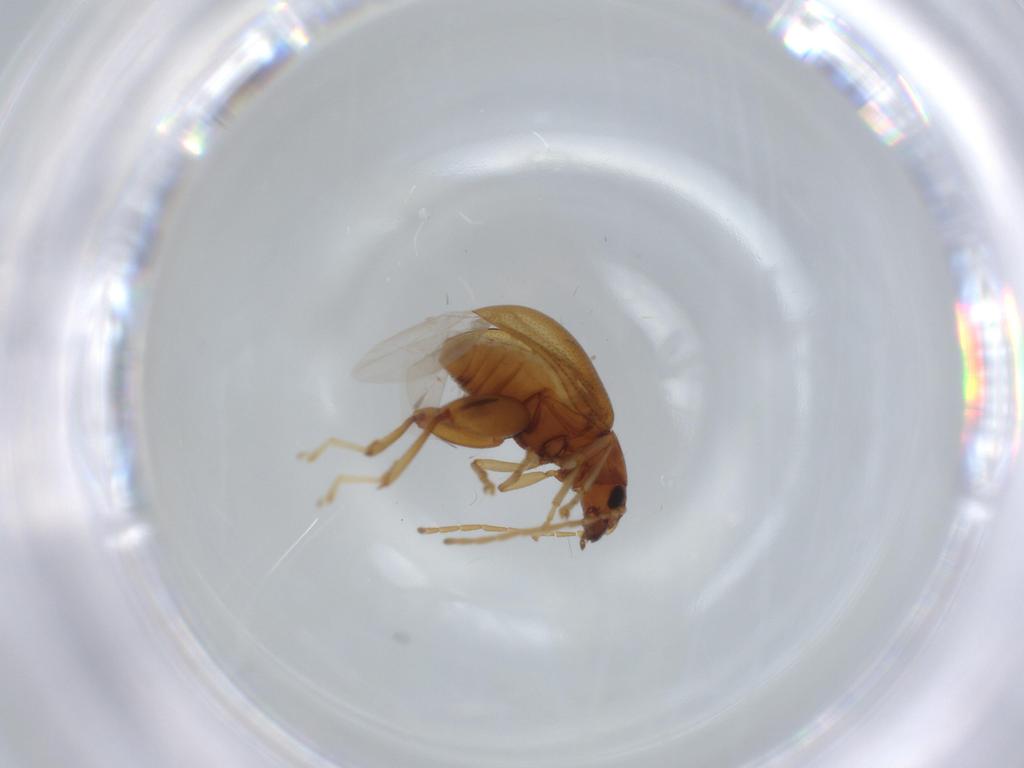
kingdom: Animalia
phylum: Arthropoda
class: Insecta
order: Coleoptera
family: Chrysomelidae
